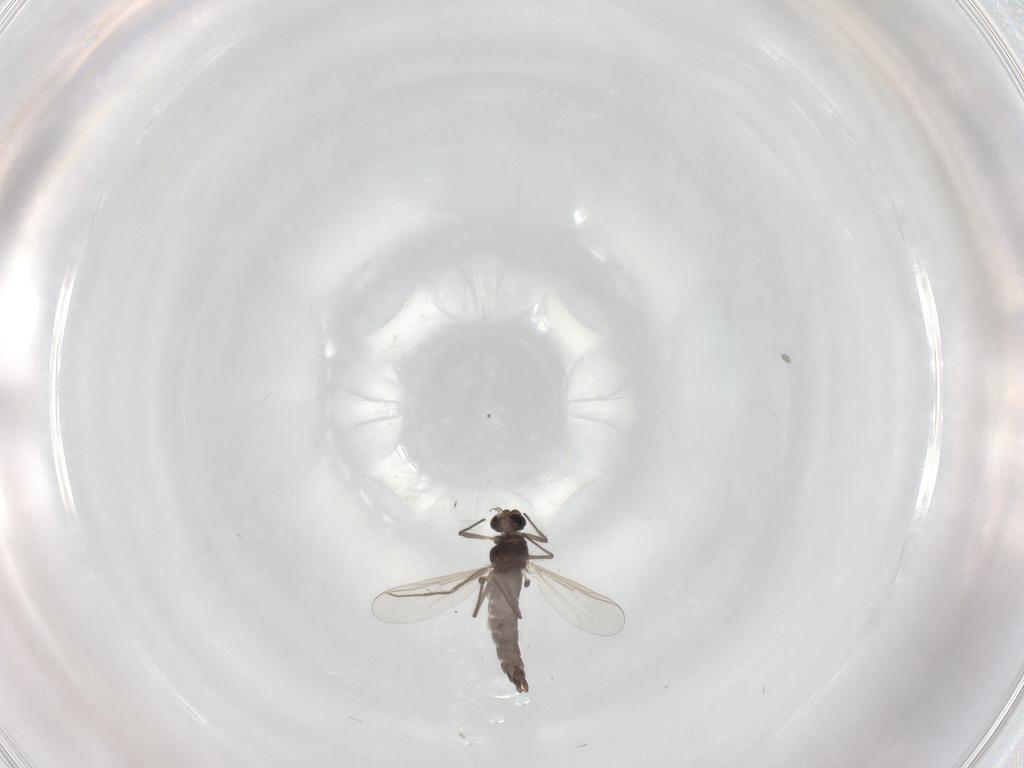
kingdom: Animalia
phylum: Arthropoda
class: Insecta
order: Diptera
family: Chironomidae
